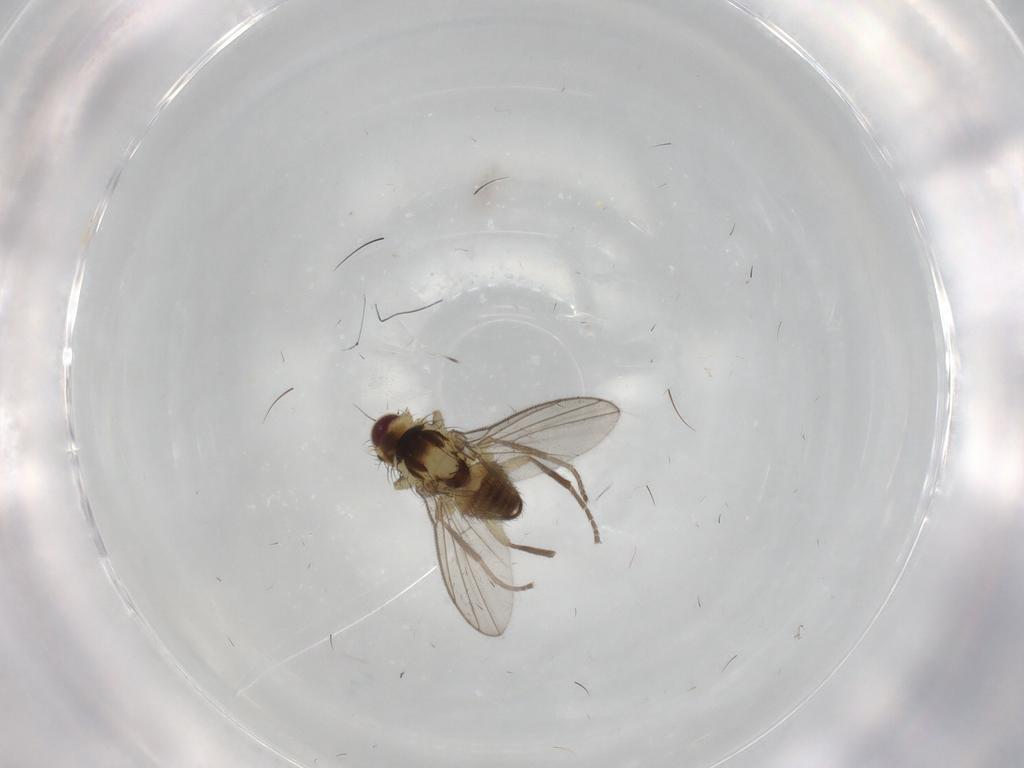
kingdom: Animalia
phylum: Arthropoda
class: Insecta
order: Diptera
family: Agromyzidae
